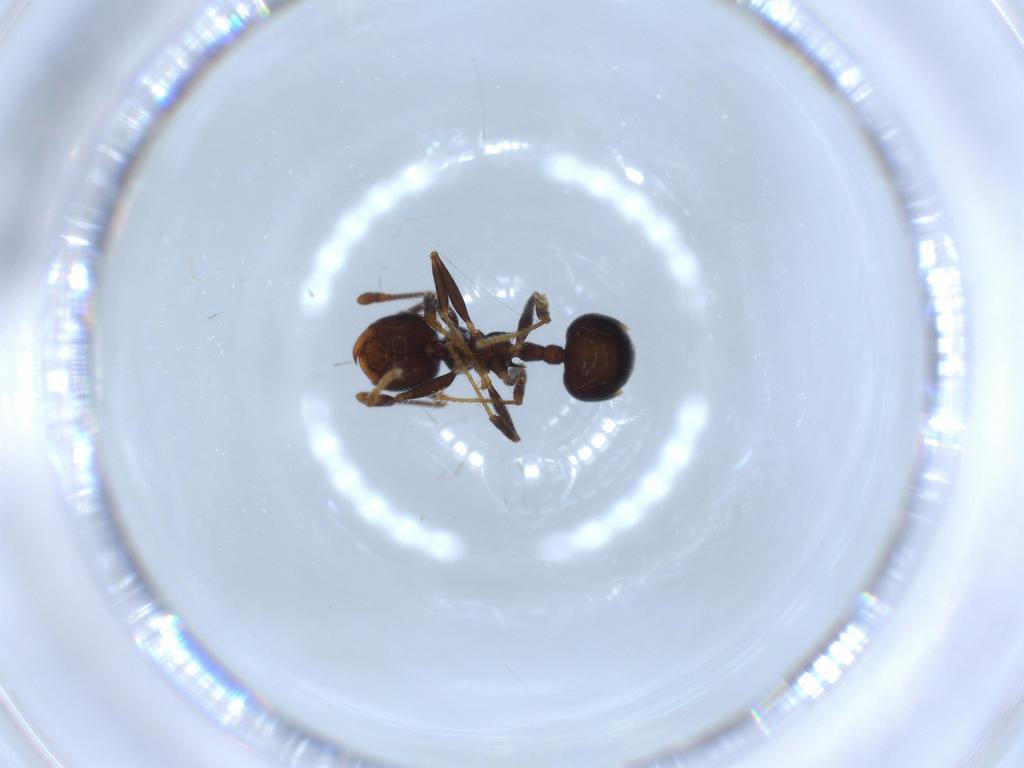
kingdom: Animalia
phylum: Arthropoda
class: Insecta
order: Hymenoptera
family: Formicidae
